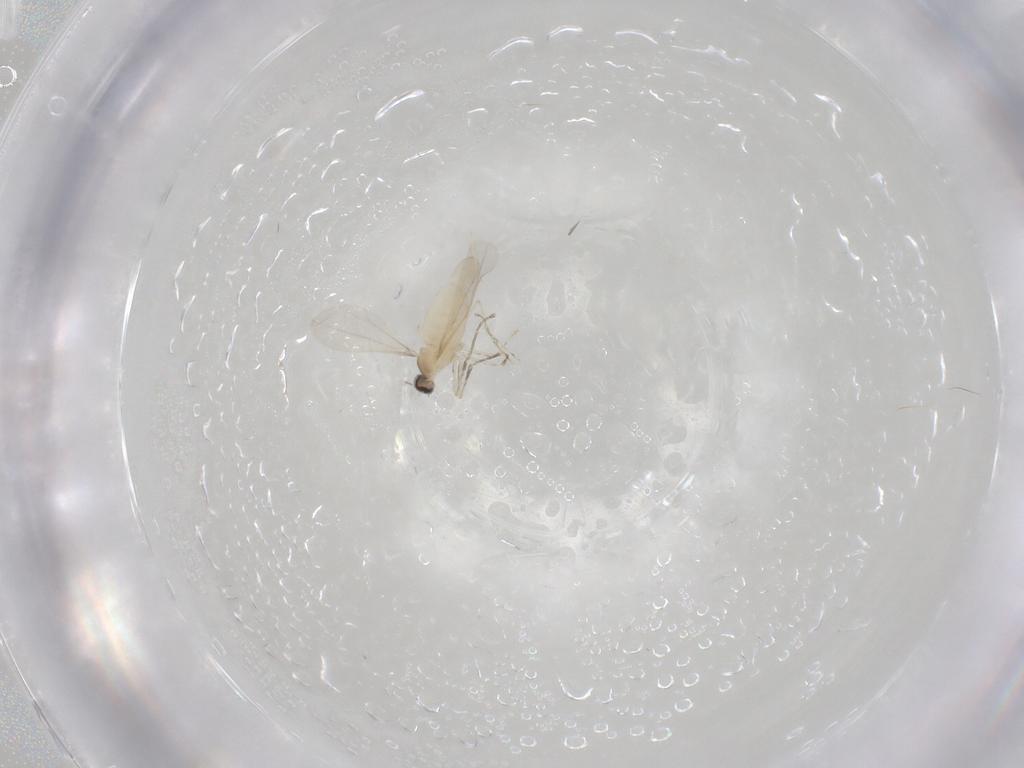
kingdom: Animalia
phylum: Arthropoda
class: Insecta
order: Diptera
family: Cecidomyiidae
